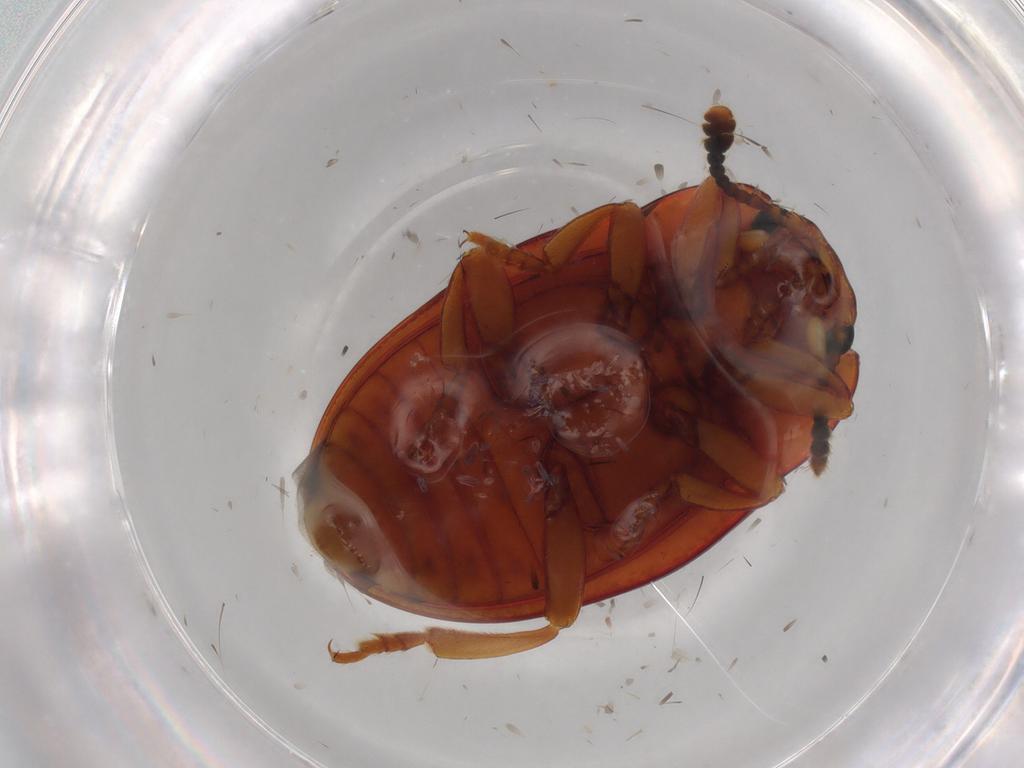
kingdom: Animalia
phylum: Arthropoda
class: Insecta
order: Coleoptera
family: Erotylidae
